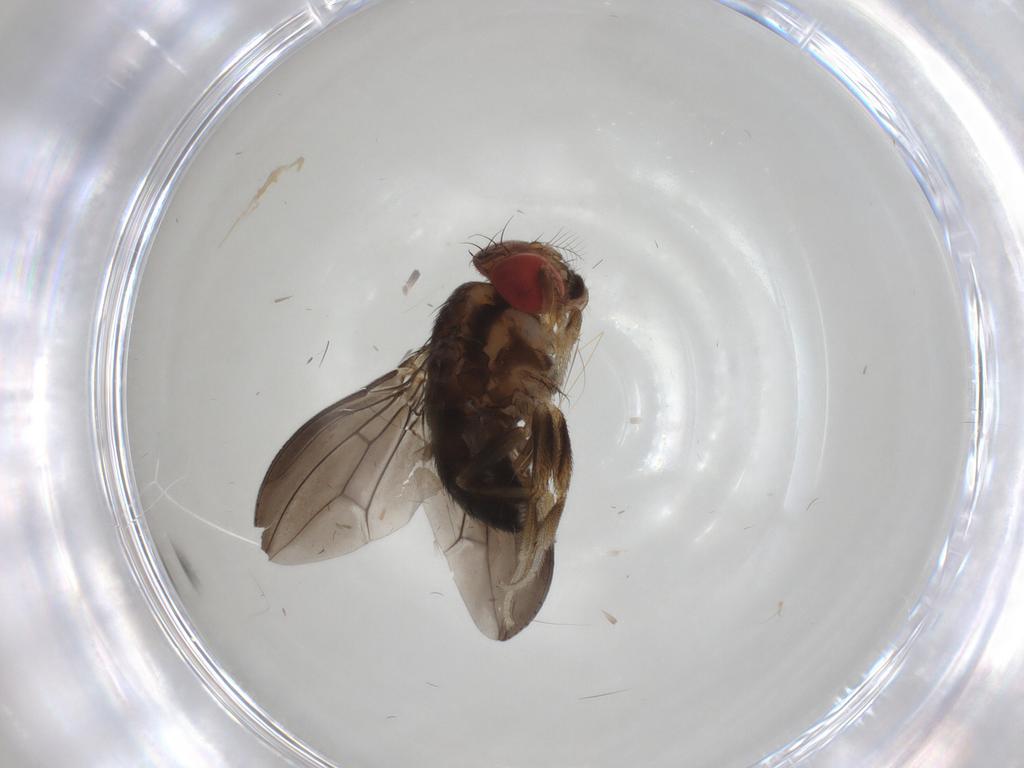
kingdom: Animalia
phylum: Arthropoda
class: Insecta
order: Diptera
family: Drosophilidae
